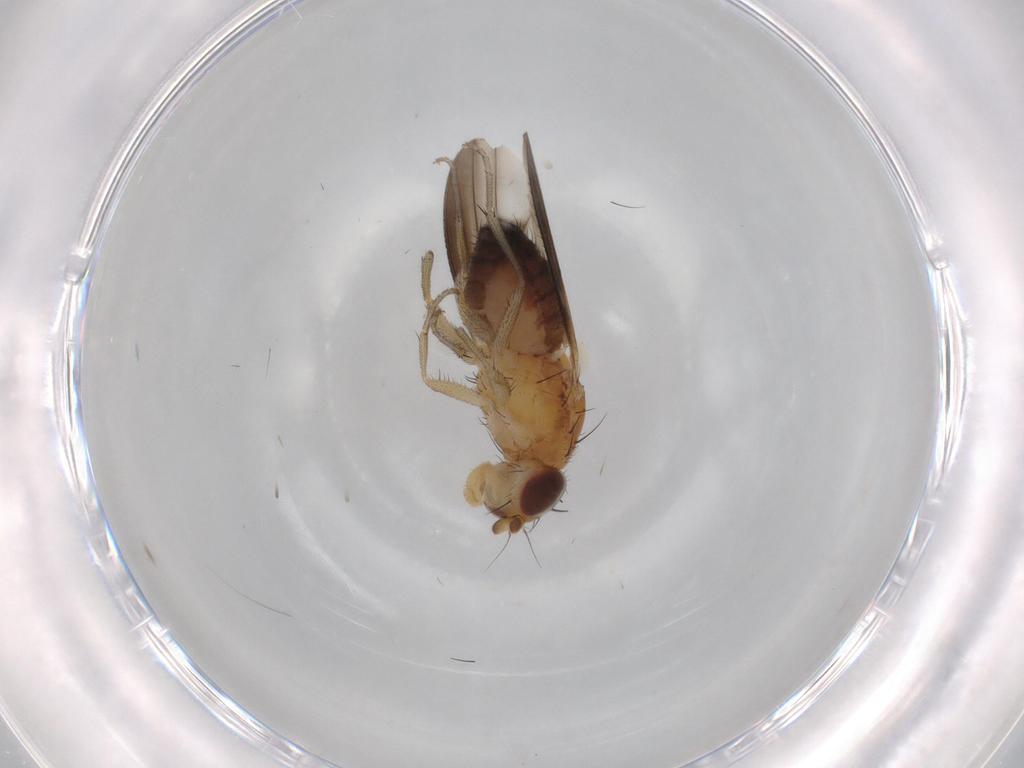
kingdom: Animalia
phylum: Arthropoda
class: Insecta
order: Diptera
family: Heleomyzidae
